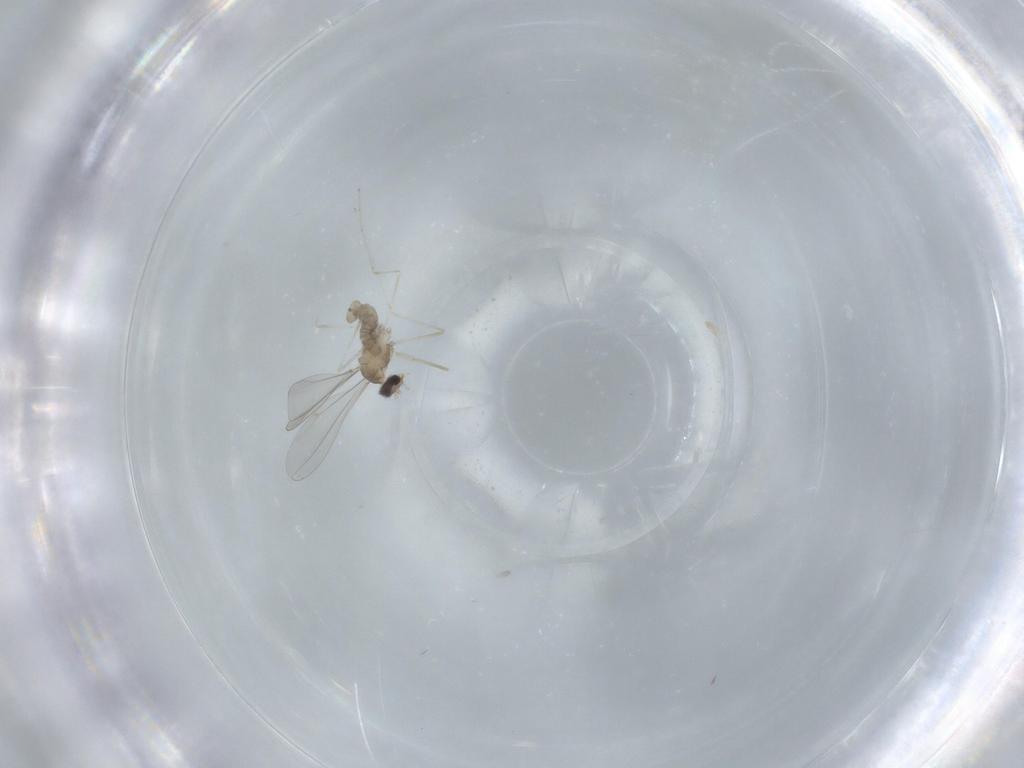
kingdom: Animalia
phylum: Arthropoda
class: Insecta
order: Diptera
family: Cecidomyiidae
